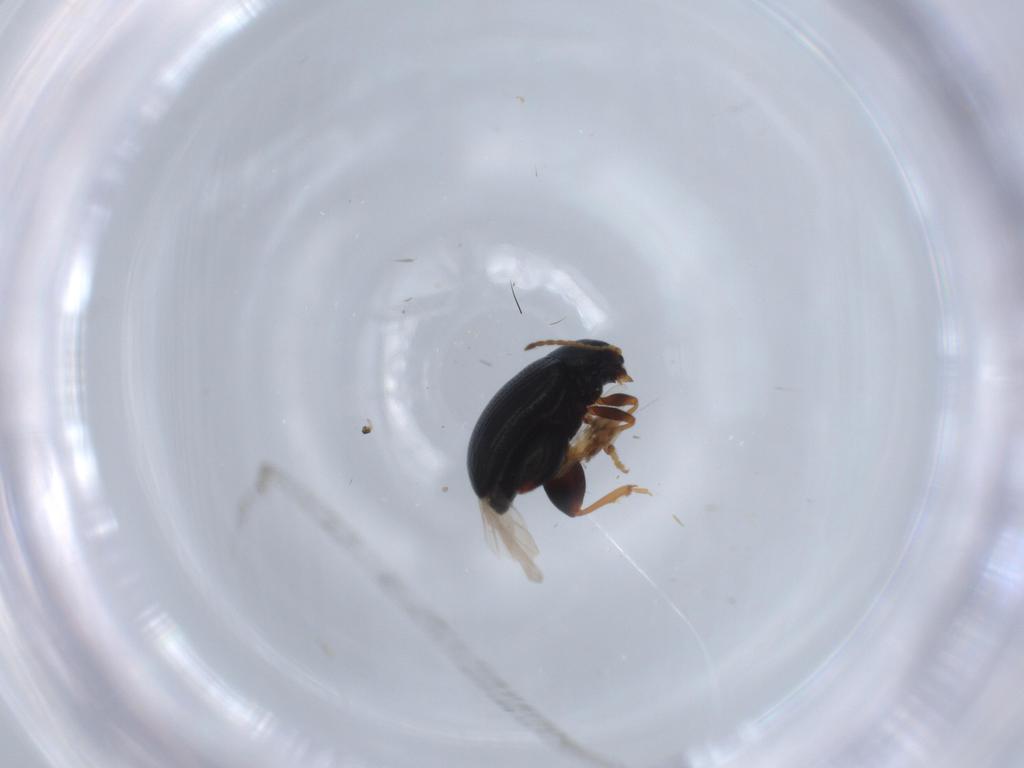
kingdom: Animalia
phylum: Arthropoda
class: Insecta
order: Coleoptera
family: Chrysomelidae
